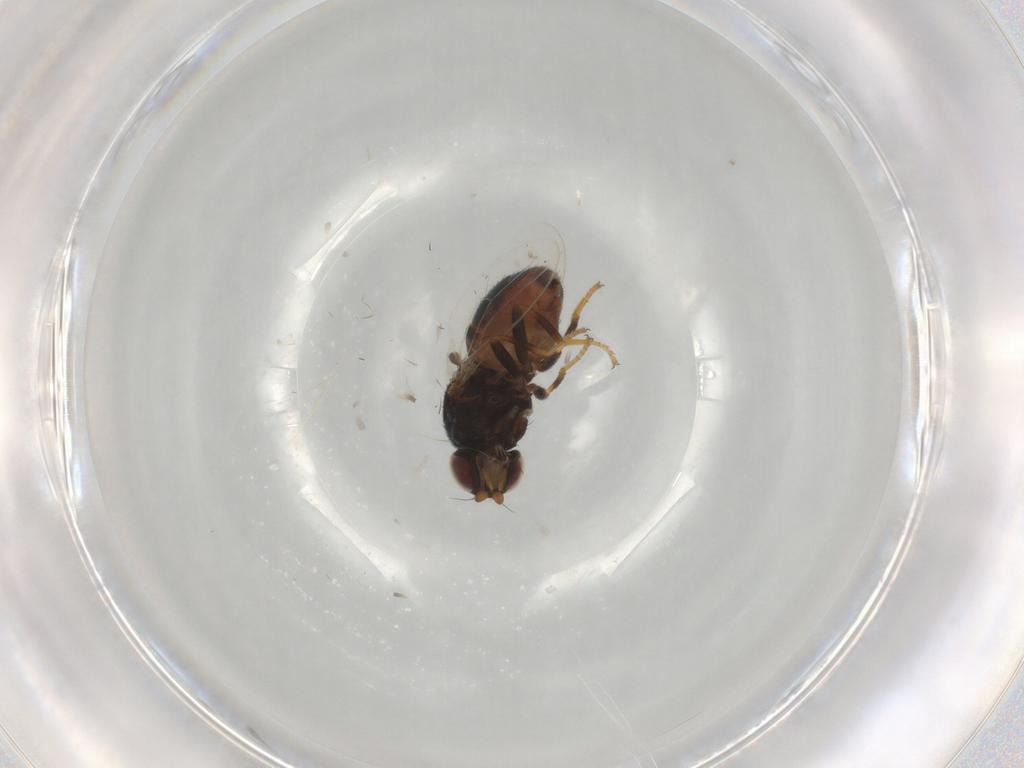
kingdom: Animalia
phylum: Arthropoda
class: Insecta
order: Diptera
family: Chloropidae
